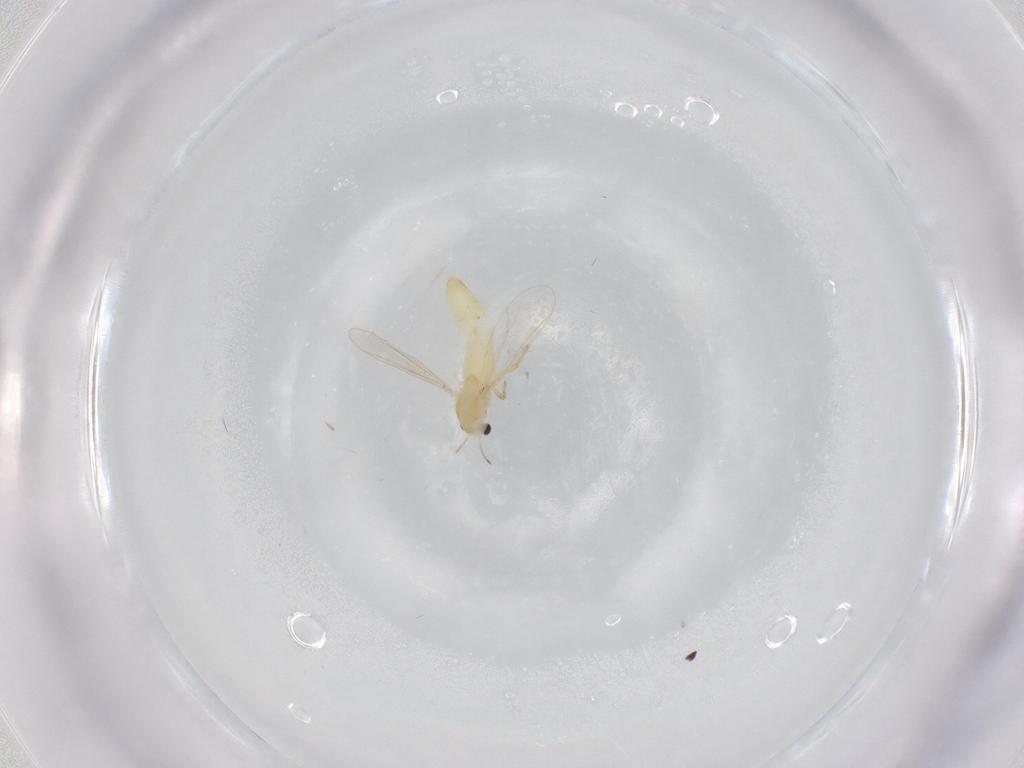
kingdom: Animalia
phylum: Arthropoda
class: Insecta
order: Diptera
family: Chironomidae
